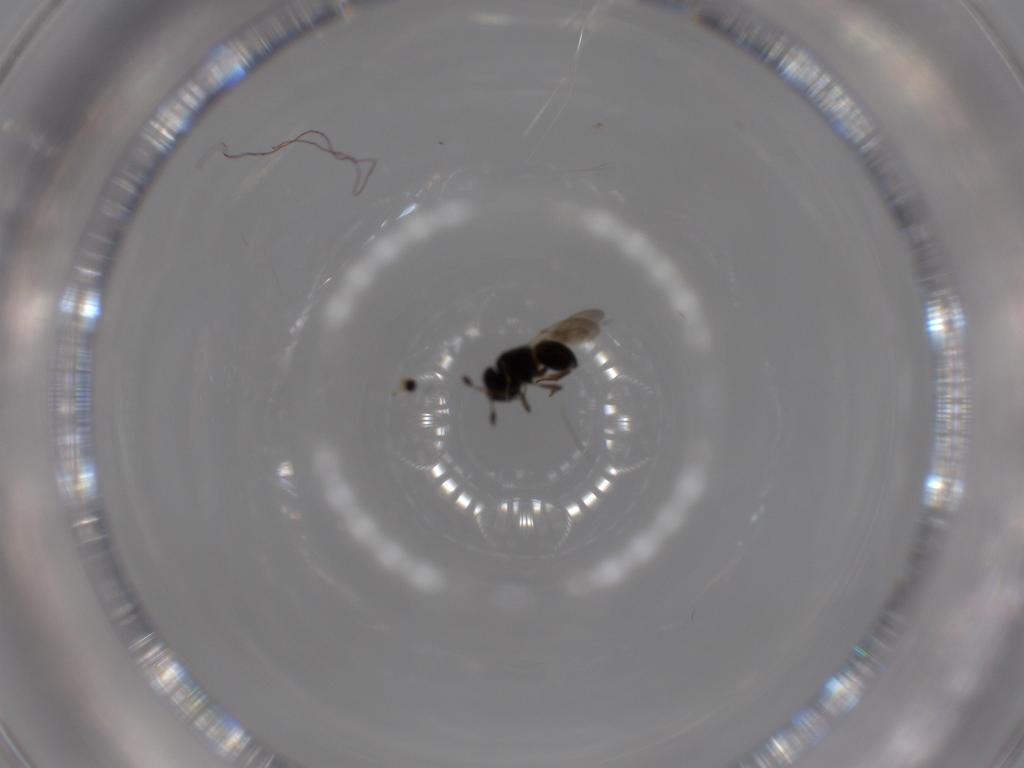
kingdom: Animalia
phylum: Arthropoda
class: Insecta
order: Hymenoptera
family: Scelionidae
